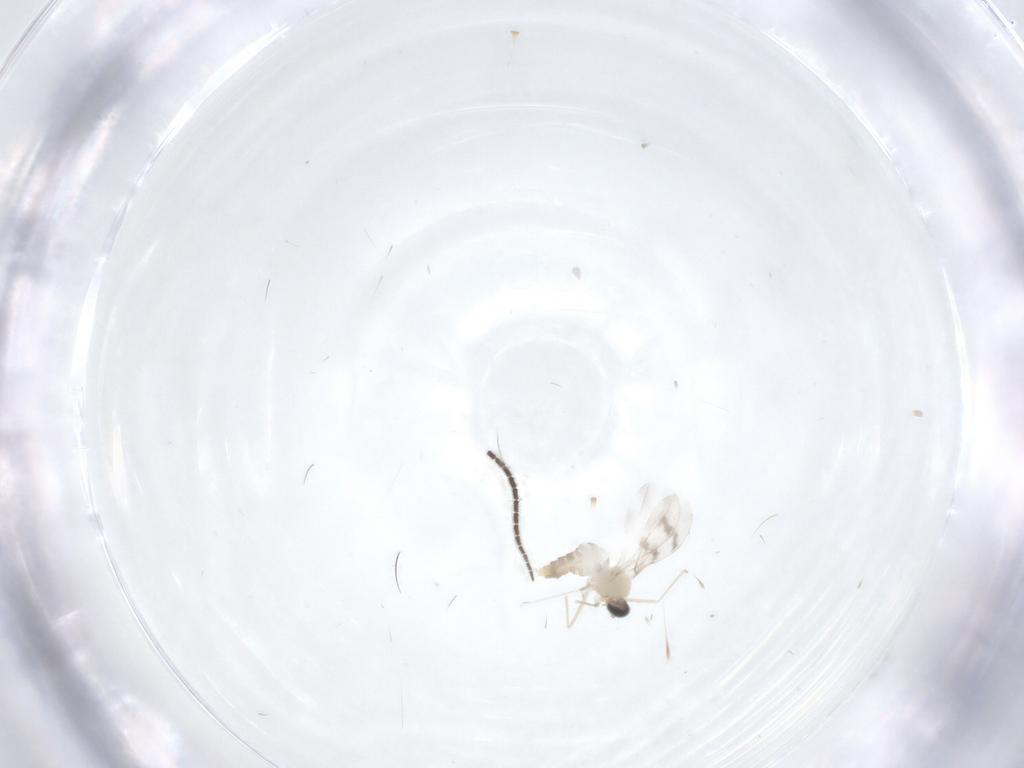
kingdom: Animalia
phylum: Arthropoda
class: Insecta
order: Diptera
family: Cecidomyiidae
